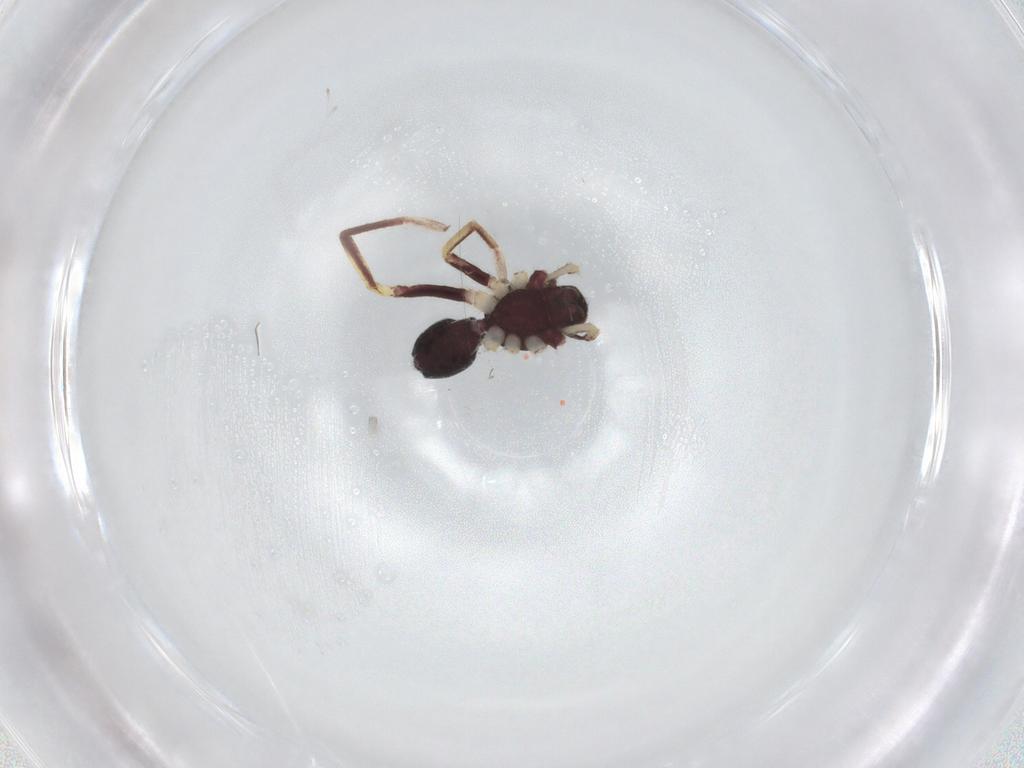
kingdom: Animalia
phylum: Arthropoda
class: Arachnida
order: Araneae
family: Corinnidae
